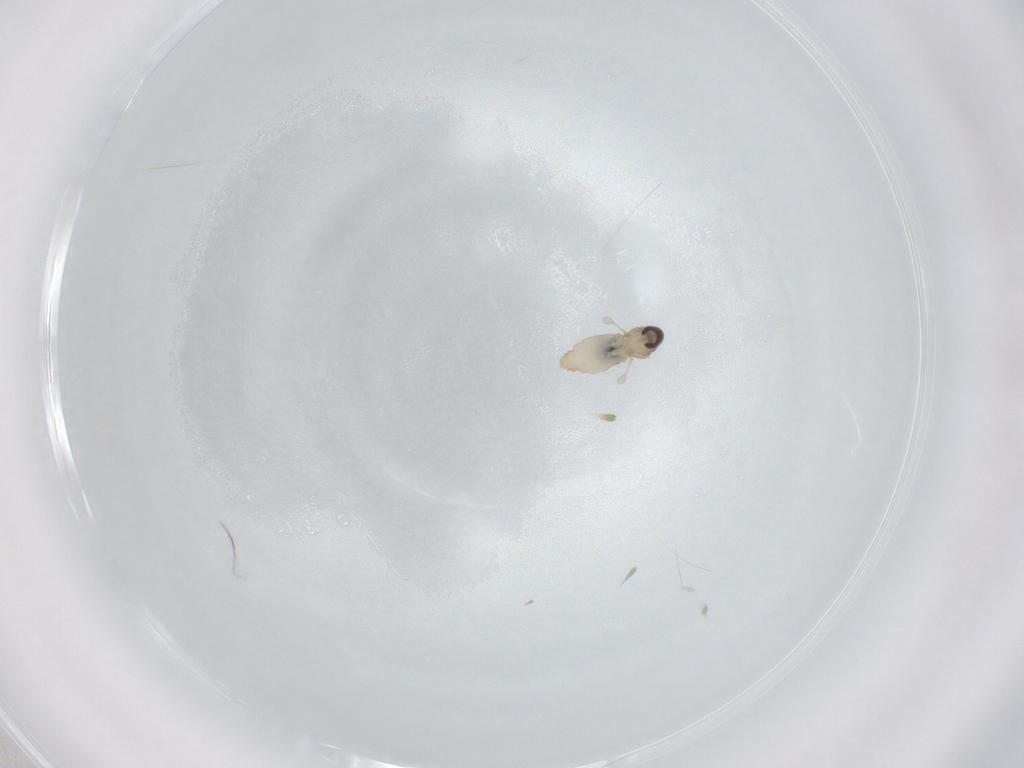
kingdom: Animalia
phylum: Arthropoda
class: Insecta
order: Diptera
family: Cecidomyiidae
